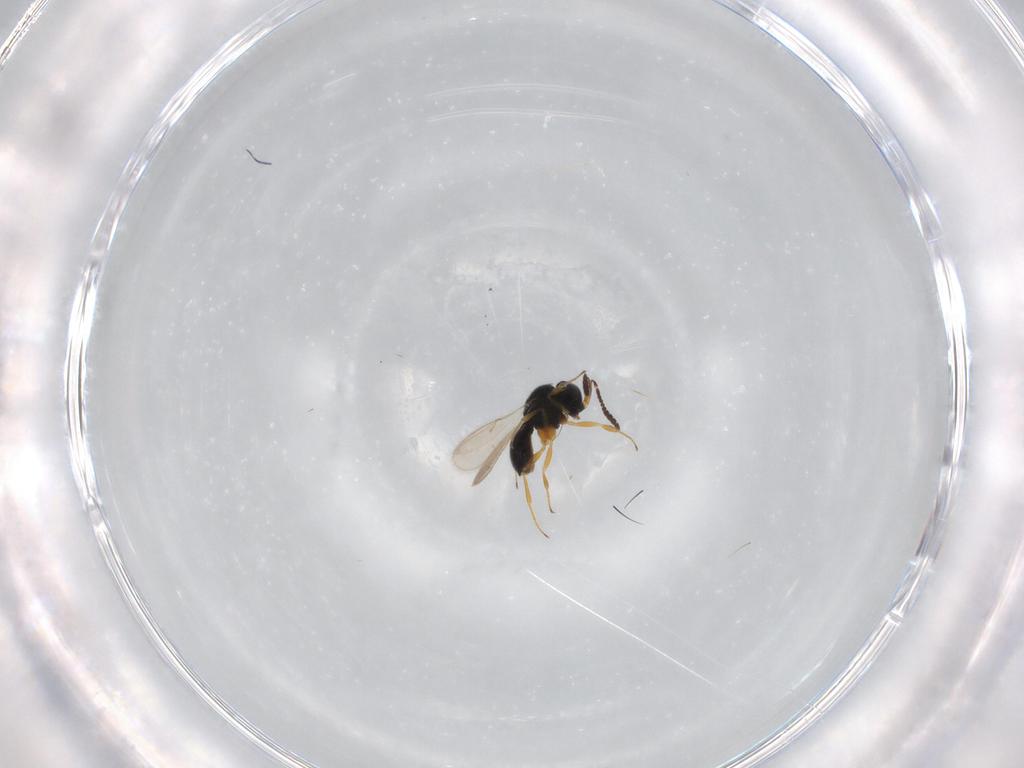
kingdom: Animalia
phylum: Arthropoda
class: Insecta
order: Hymenoptera
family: Scelionidae
